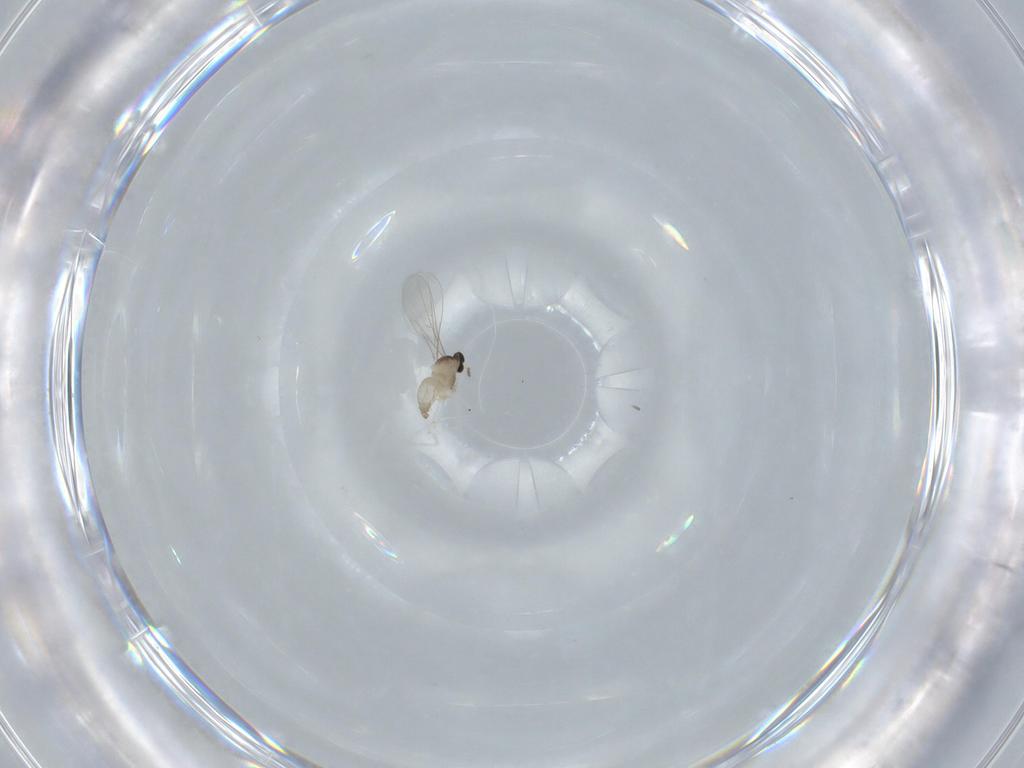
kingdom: Animalia
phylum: Arthropoda
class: Insecta
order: Diptera
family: Cecidomyiidae
